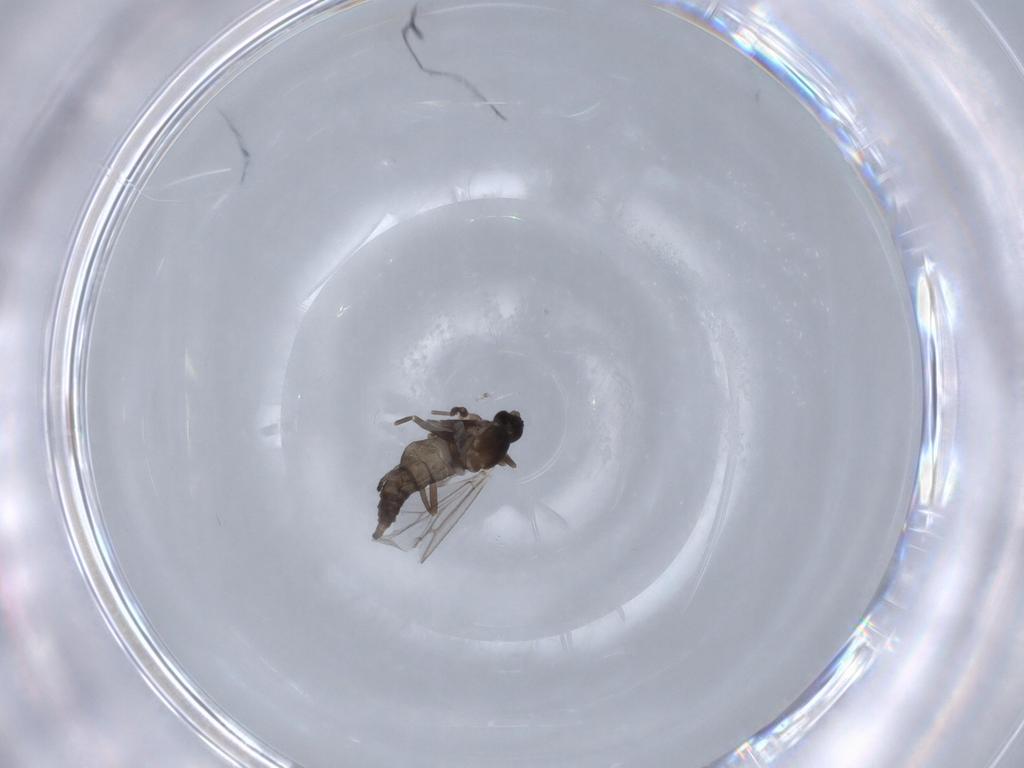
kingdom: Animalia
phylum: Arthropoda
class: Insecta
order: Diptera
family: Cecidomyiidae
